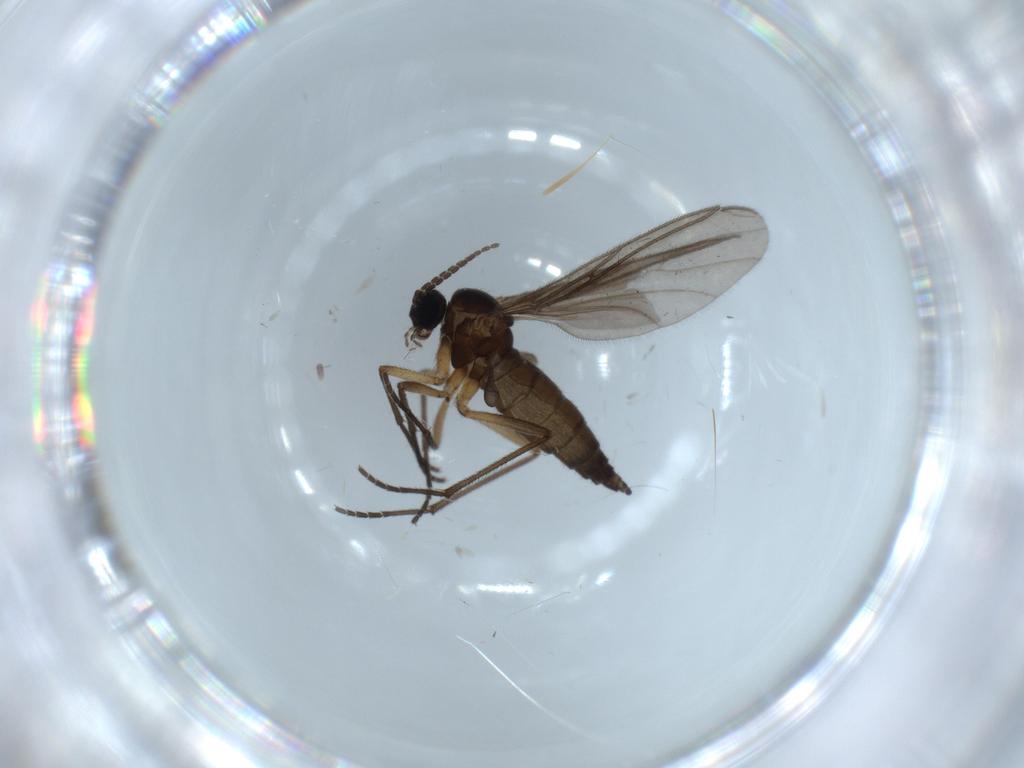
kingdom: Animalia
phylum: Arthropoda
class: Insecta
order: Diptera
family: Sciaridae
